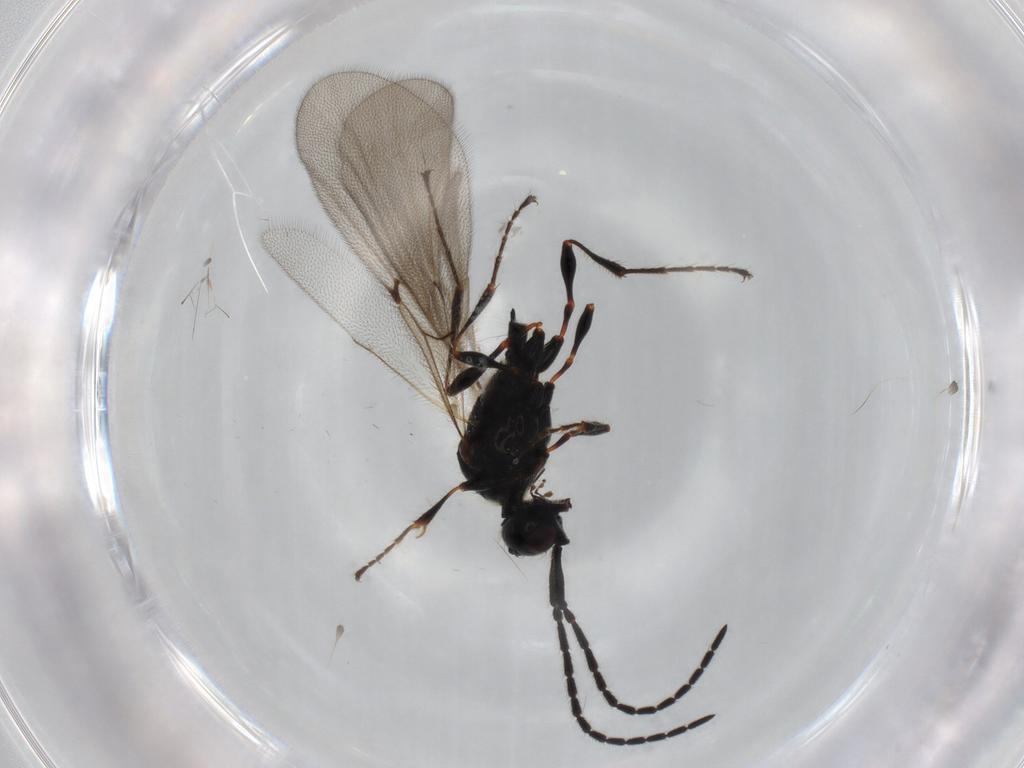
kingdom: Animalia
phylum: Arthropoda
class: Insecta
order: Hymenoptera
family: Diapriidae
